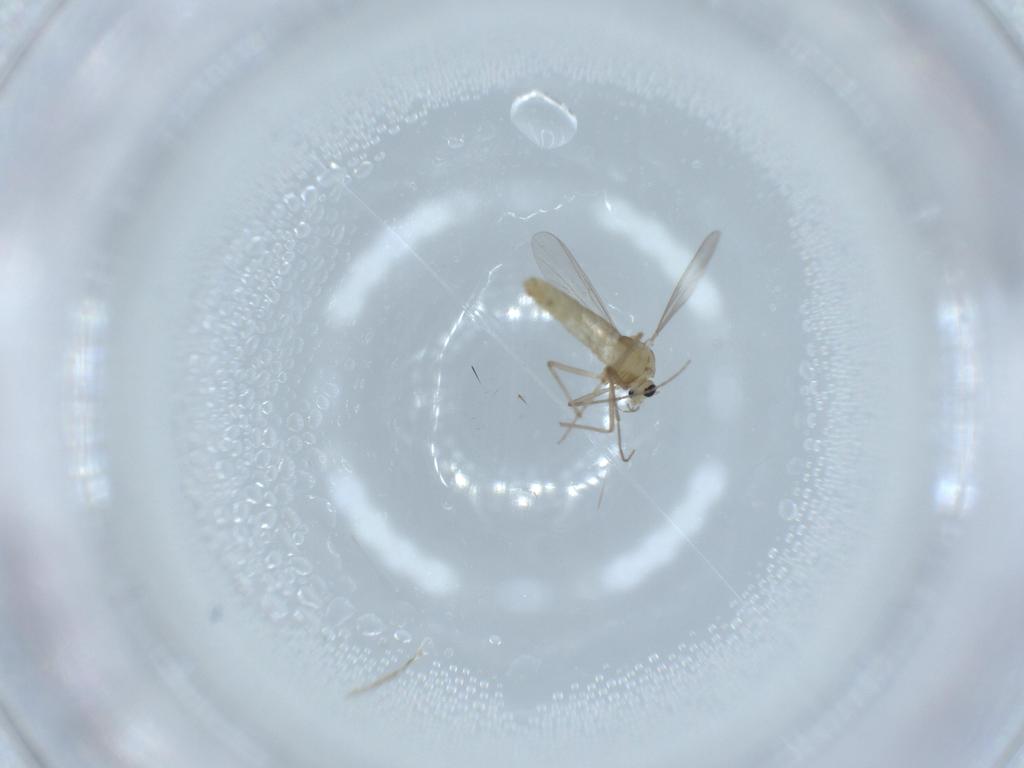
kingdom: Animalia
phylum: Arthropoda
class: Insecta
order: Diptera
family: Chironomidae
